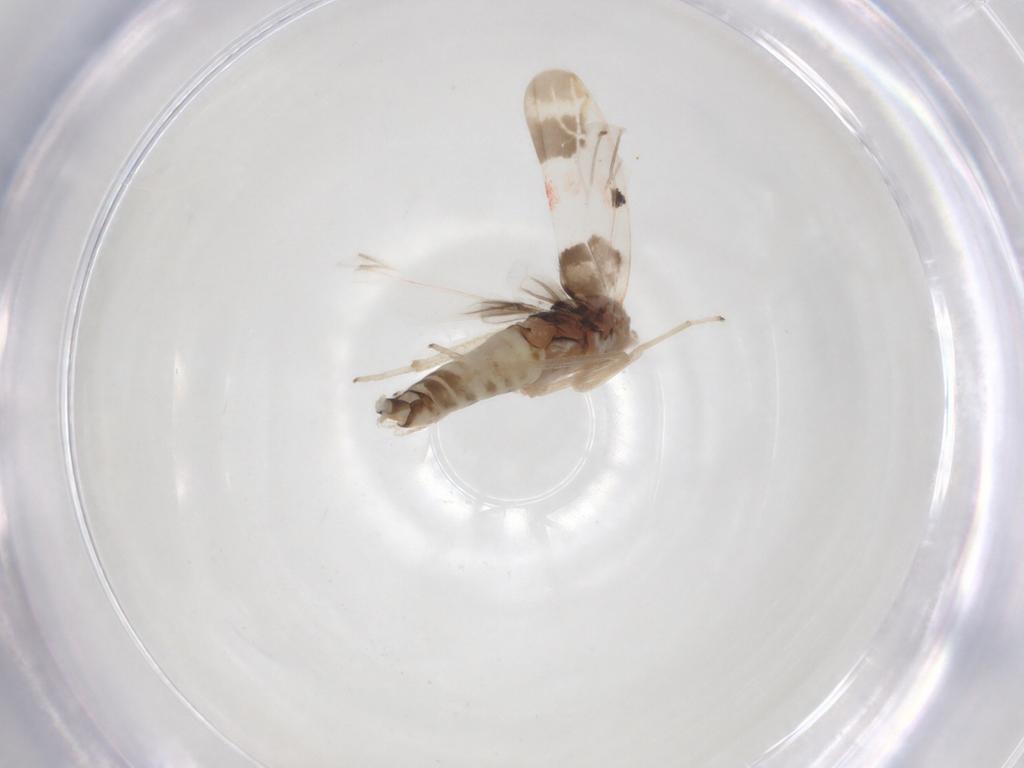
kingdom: Animalia
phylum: Arthropoda
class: Insecta
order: Hemiptera
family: Cicadellidae
